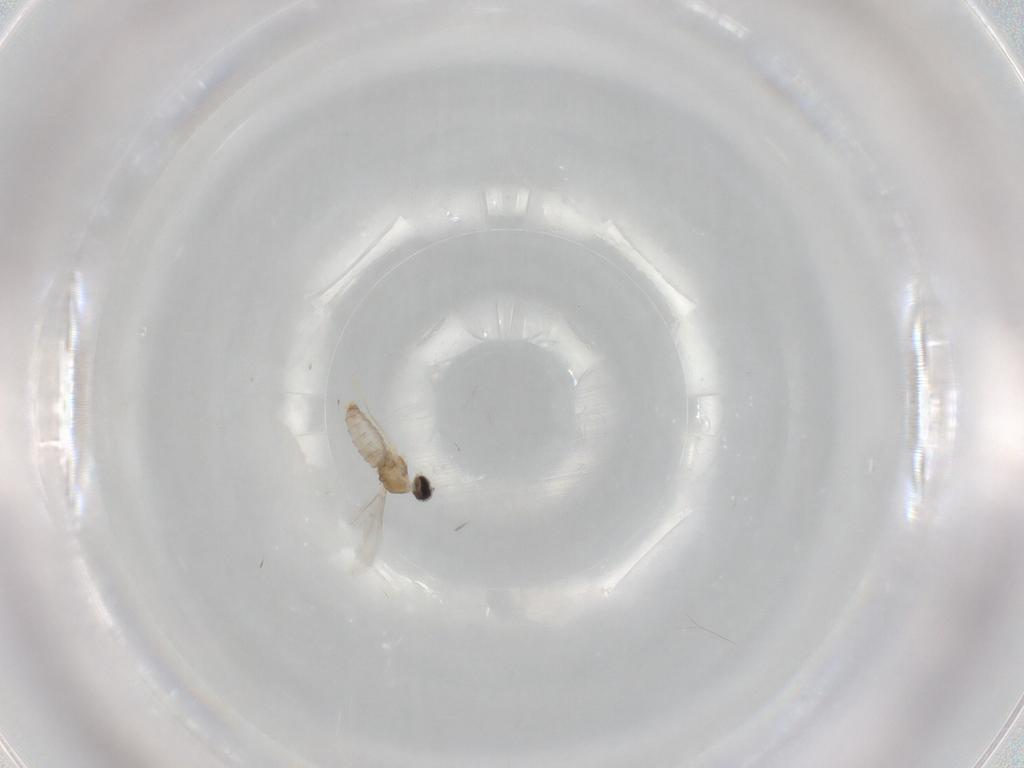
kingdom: Animalia
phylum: Arthropoda
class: Insecta
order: Diptera
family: Cecidomyiidae
